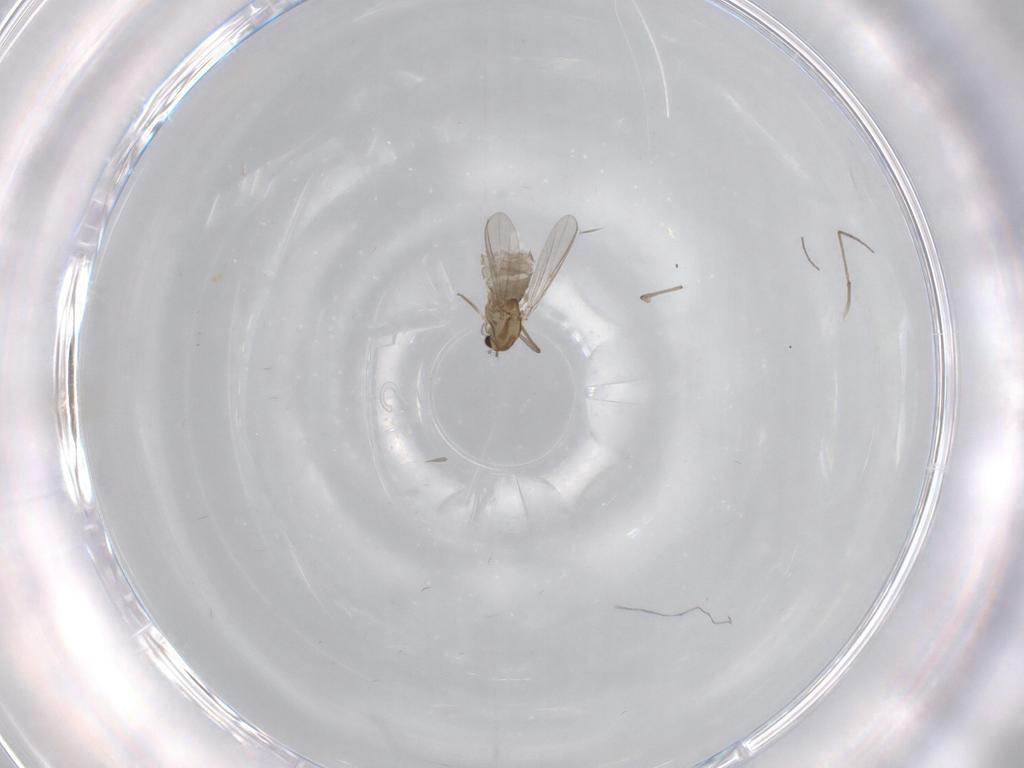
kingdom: Animalia
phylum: Arthropoda
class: Insecta
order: Diptera
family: Chironomidae
